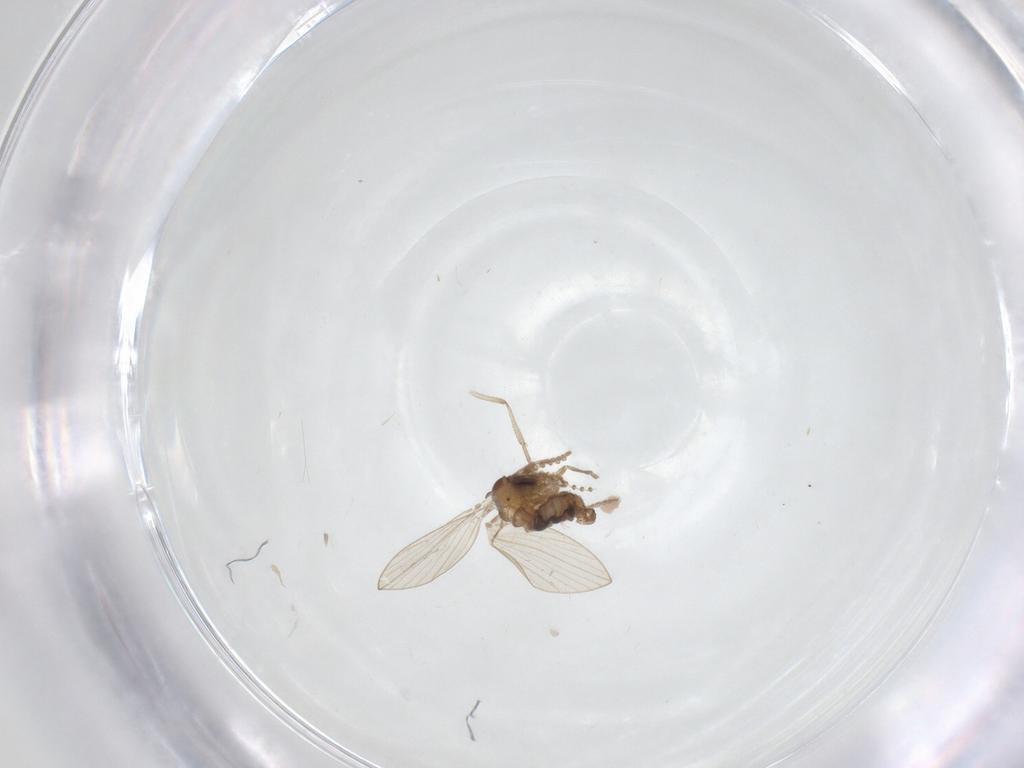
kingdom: Animalia
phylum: Arthropoda
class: Insecta
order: Diptera
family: Psychodidae
